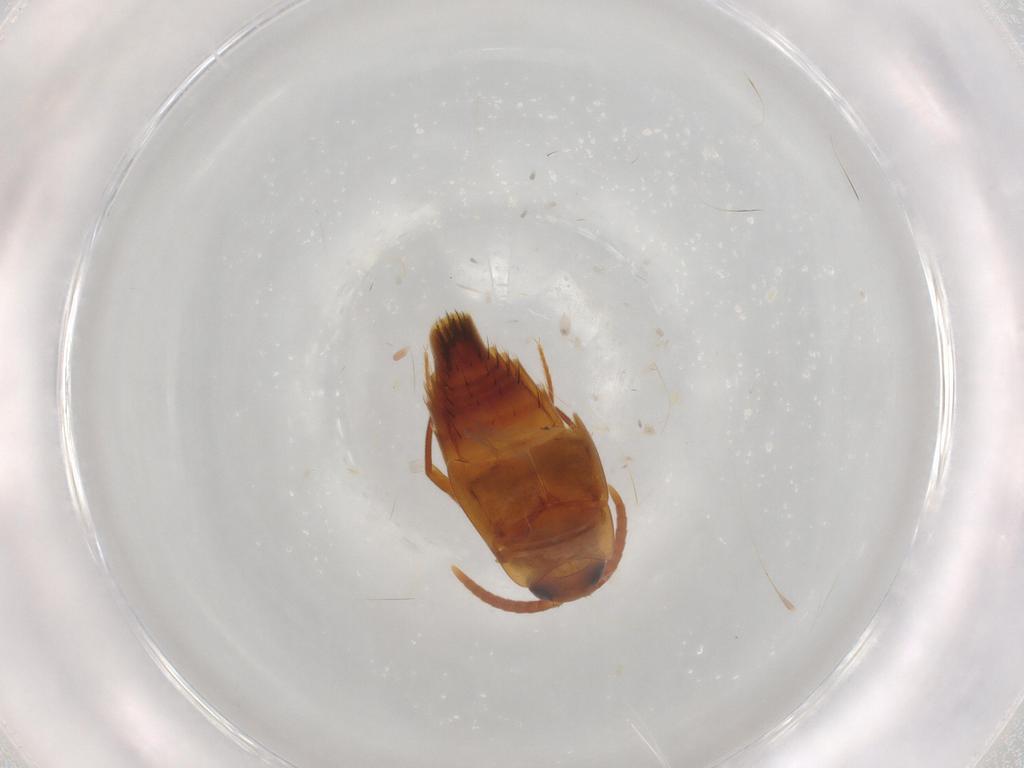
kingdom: Animalia
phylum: Arthropoda
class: Insecta
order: Coleoptera
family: Staphylinidae
